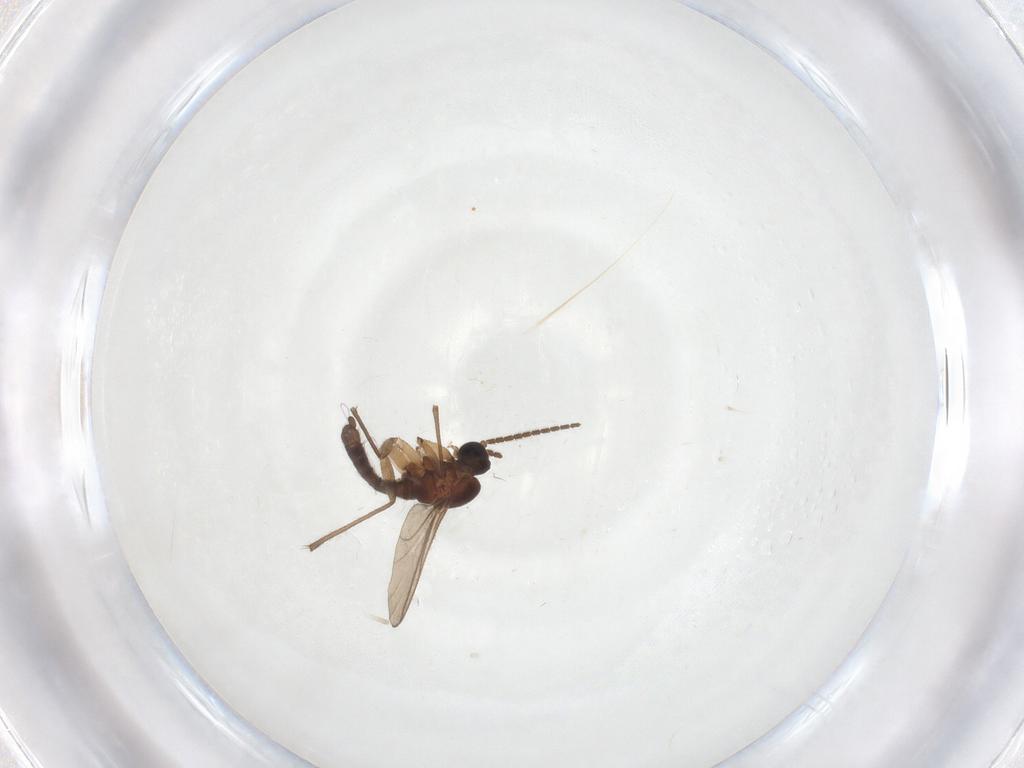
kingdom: Animalia
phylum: Arthropoda
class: Insecta
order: Diptera
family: Sciaridae
